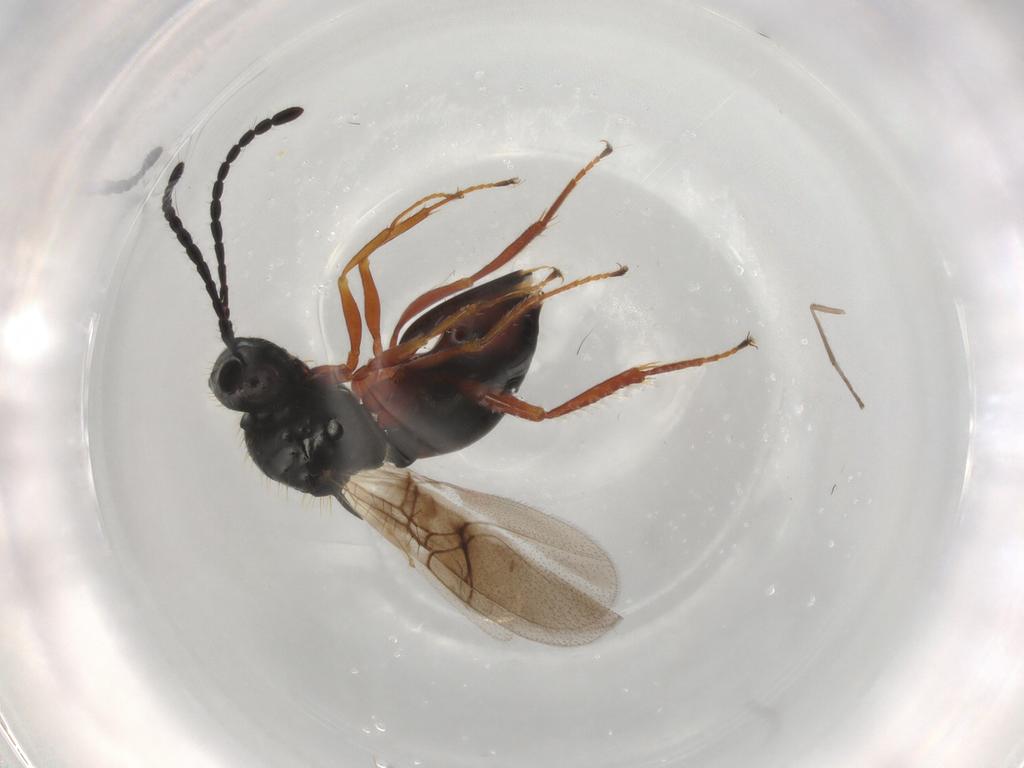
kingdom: Animalia
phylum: Arthropoda
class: Insecta
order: Hymenoptera
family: Figitidae
